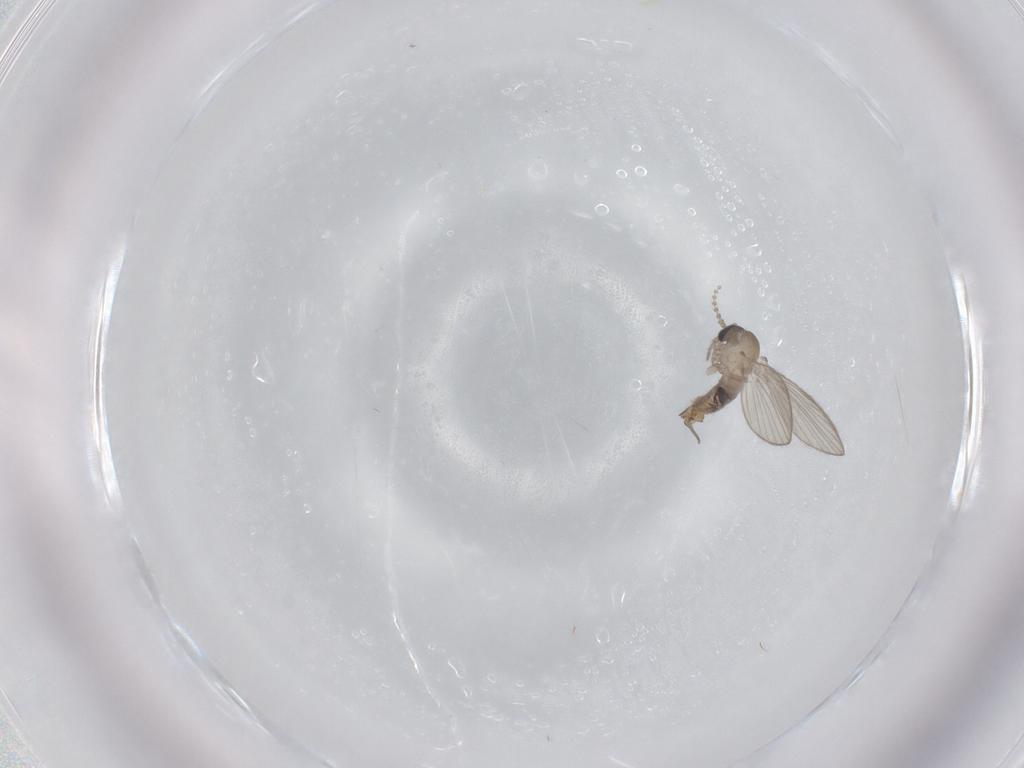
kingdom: Animalia
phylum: Arthropoda
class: Insecta
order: Diptera
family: Psychodidae
